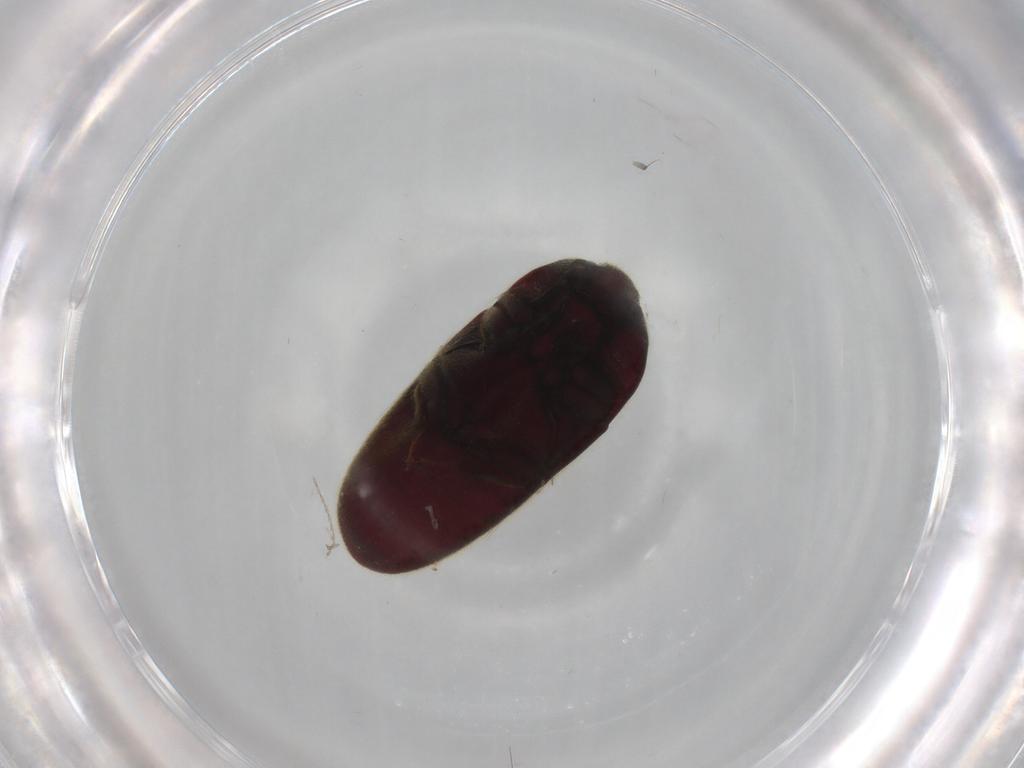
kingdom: Animalia
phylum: Arthropoda
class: Insecta
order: Coleoptera
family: Throscidae
